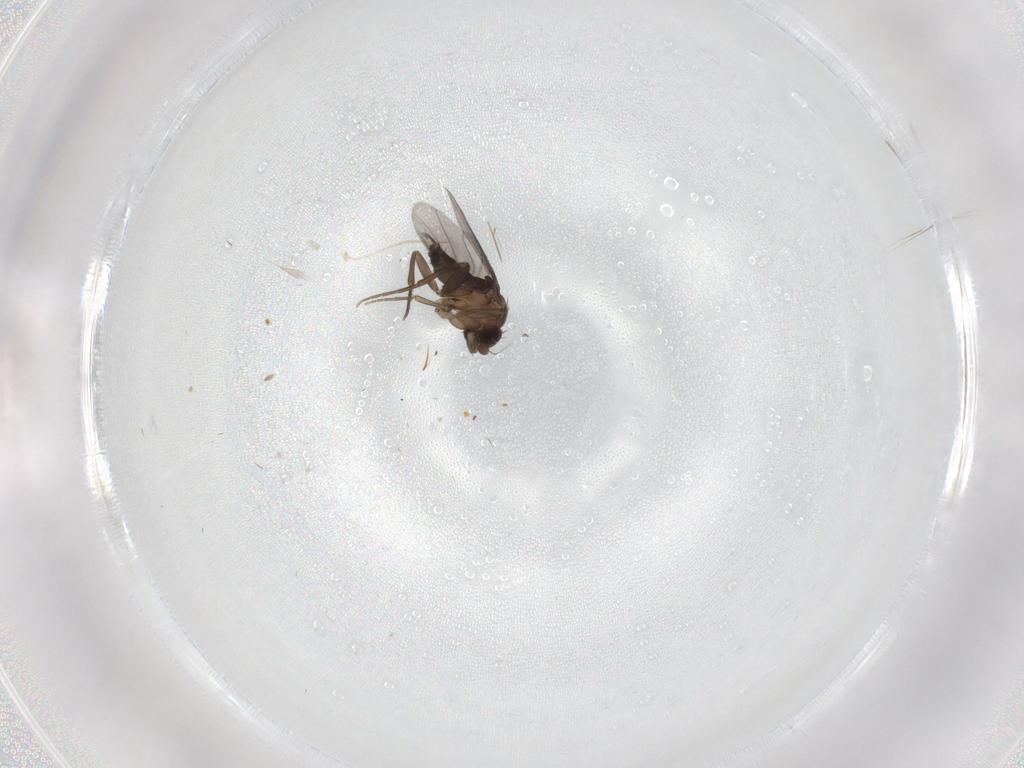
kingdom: Animalia
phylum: Arthropoda
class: Insecta
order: Diptera
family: Phoridae
